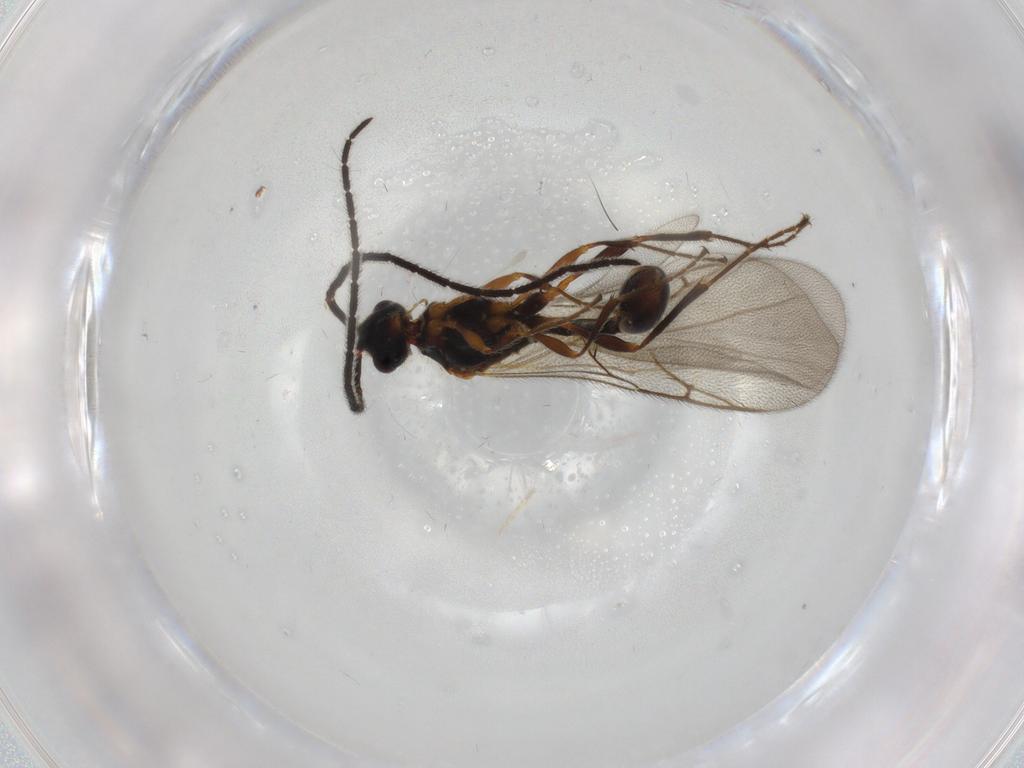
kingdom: Animalia
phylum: Arthropoda
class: Insecta
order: Hymenoptera
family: Diapriidae
